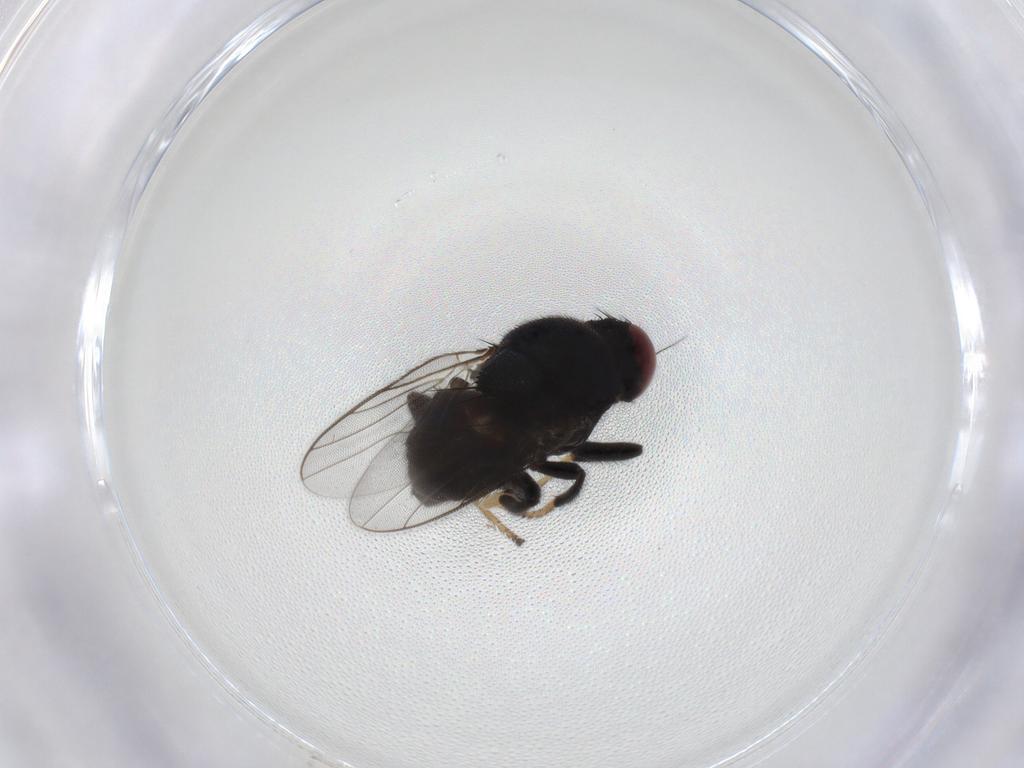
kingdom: Animalia
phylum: Arthropoda
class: Insecta
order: Diptera
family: Chloropidae
